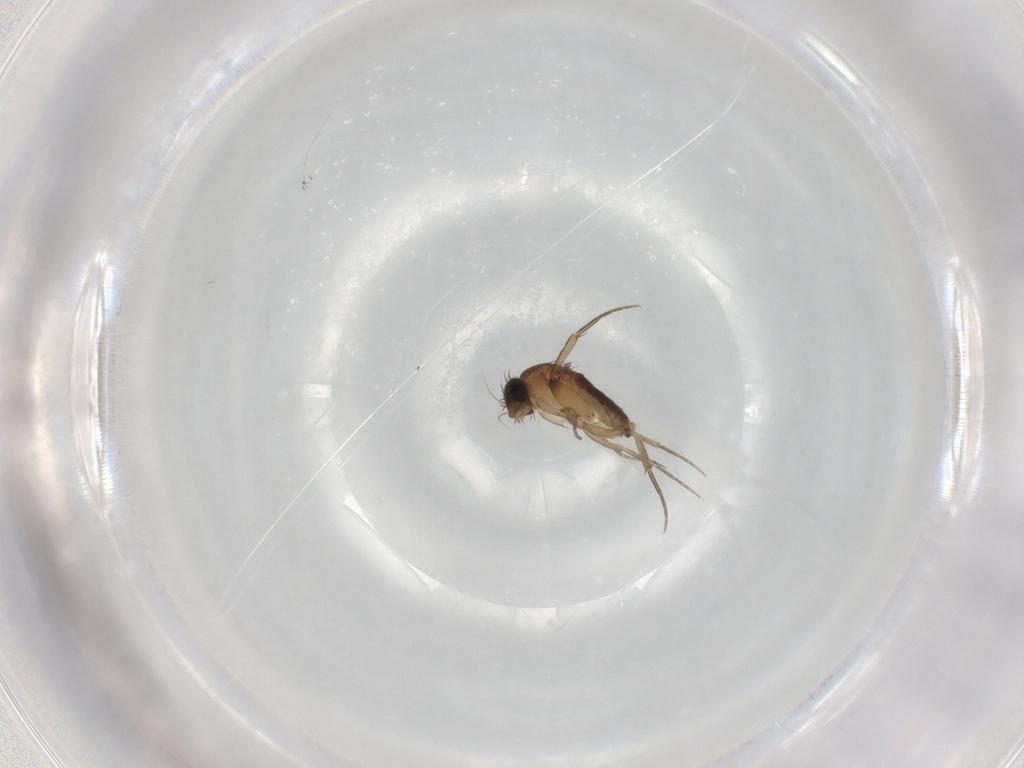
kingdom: Animalia
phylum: Arthropoda
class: Insecta
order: Diptera
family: Phoridae
